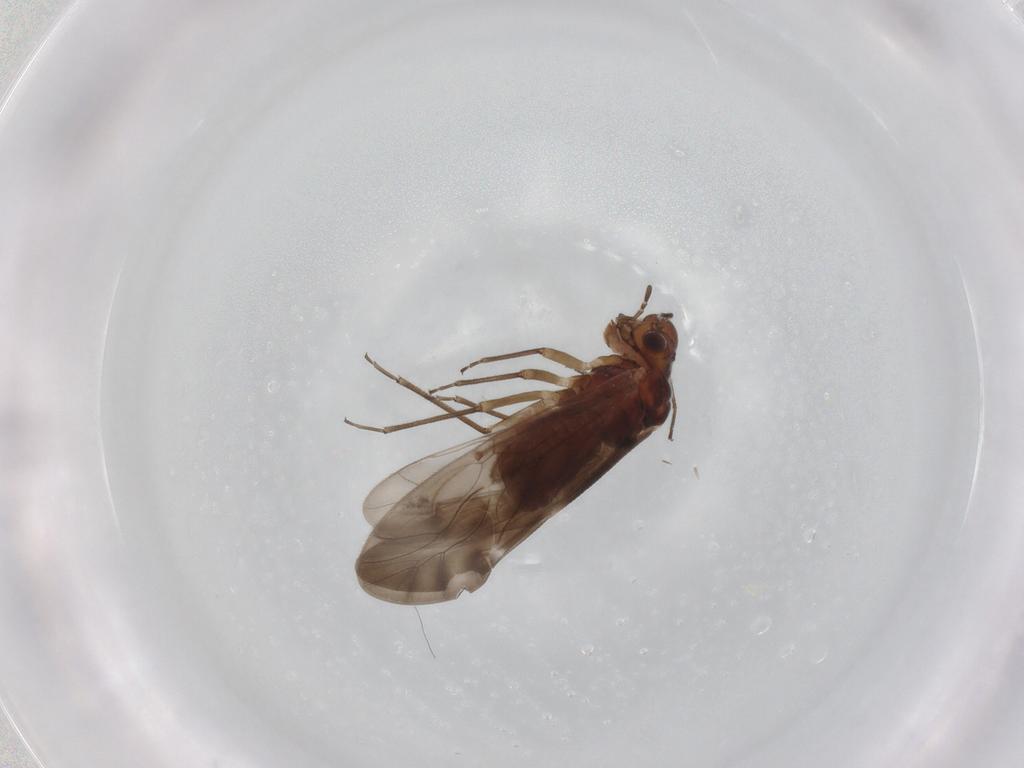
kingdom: Animalia
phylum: Arthropoda
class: Insecta
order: Psocodea
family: Caeciliusidae
